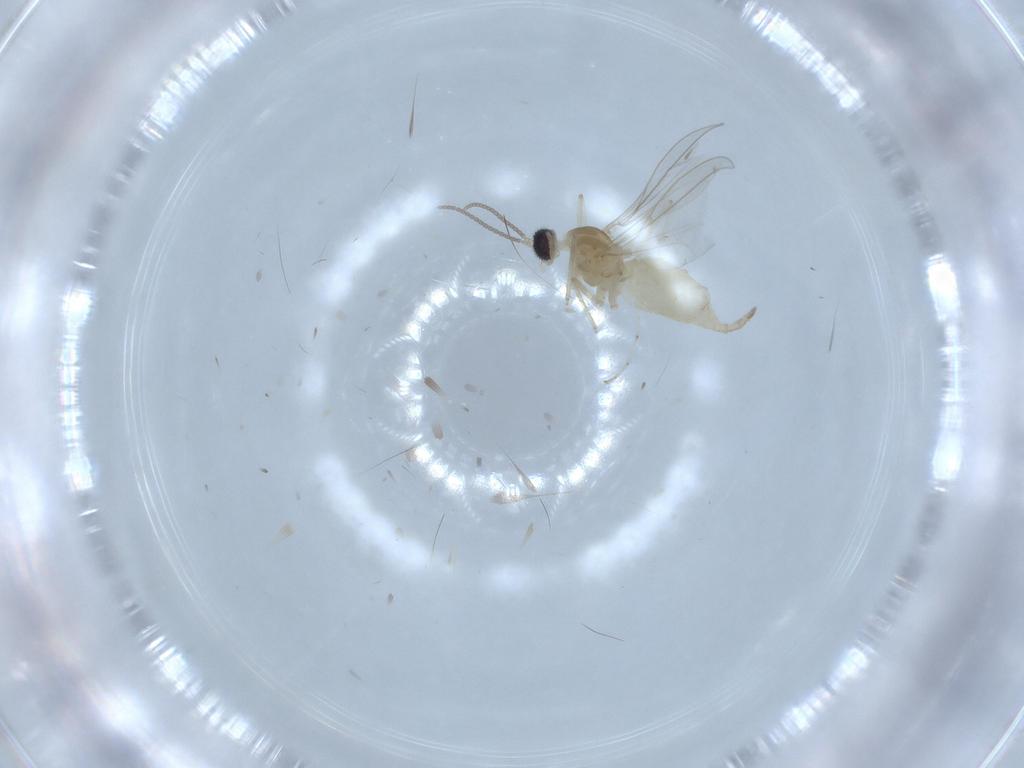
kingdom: Animalia
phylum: Arthropoda
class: Insecta
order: Diptera
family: Cecidomyiidae
